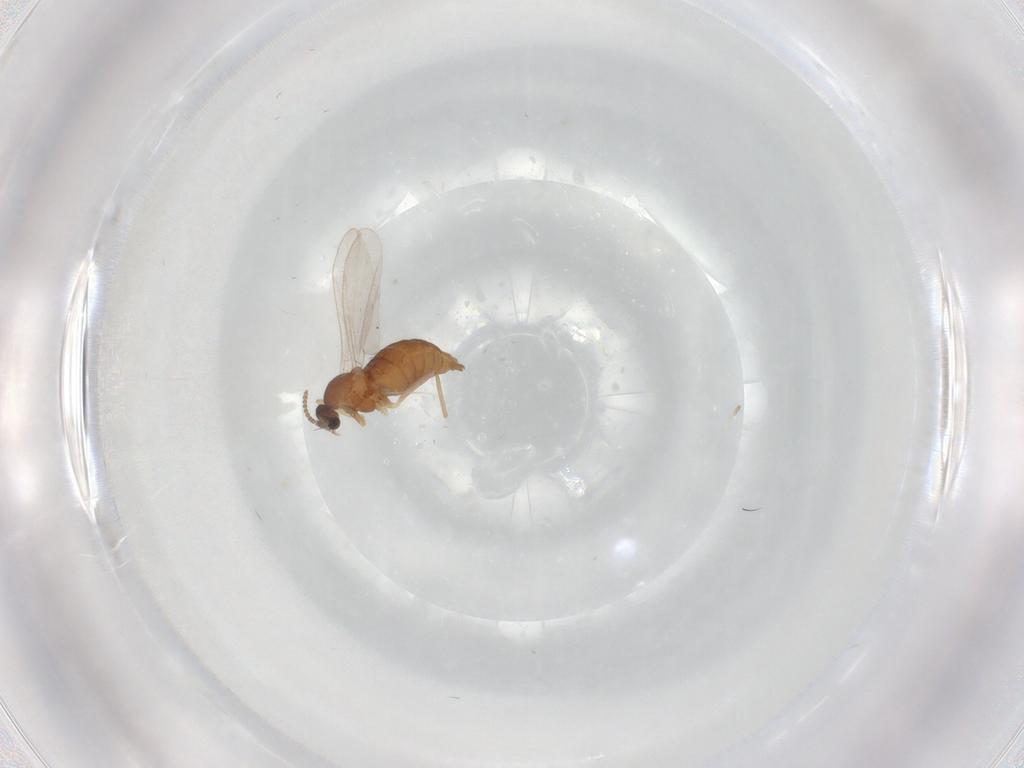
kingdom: Animalia
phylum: Arthropoda
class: Insecta
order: Diptera
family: Cecidomyiidae
